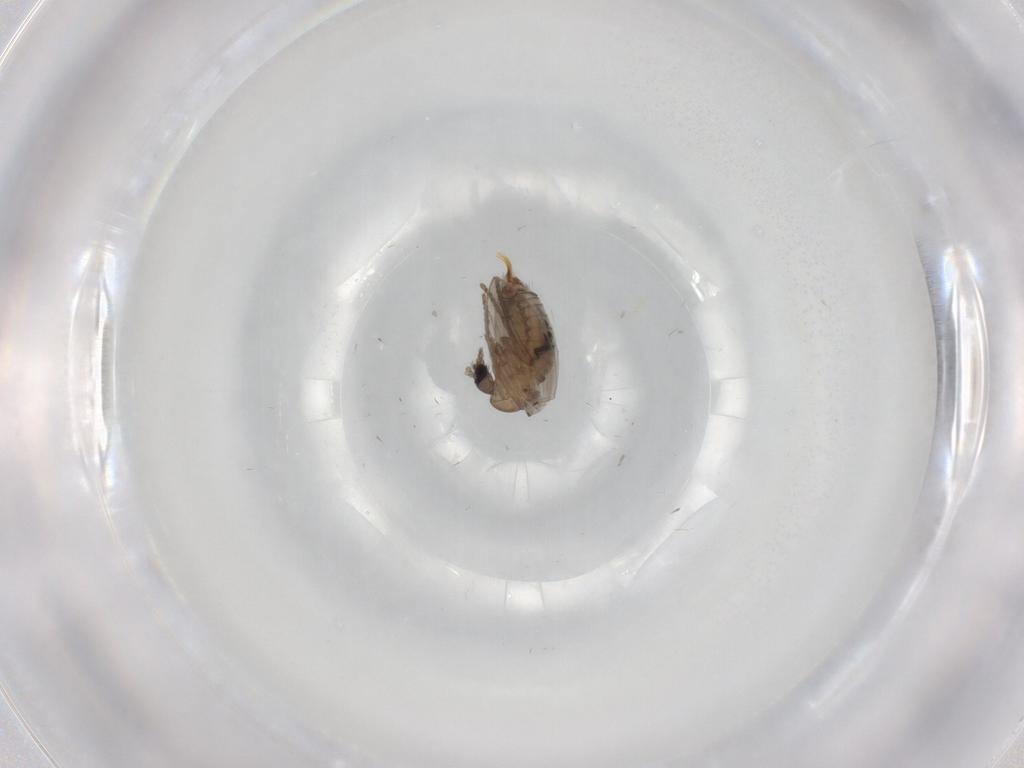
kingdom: Animalia
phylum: Arthropoda
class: Insecta
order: Diptera
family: Psychodidae
